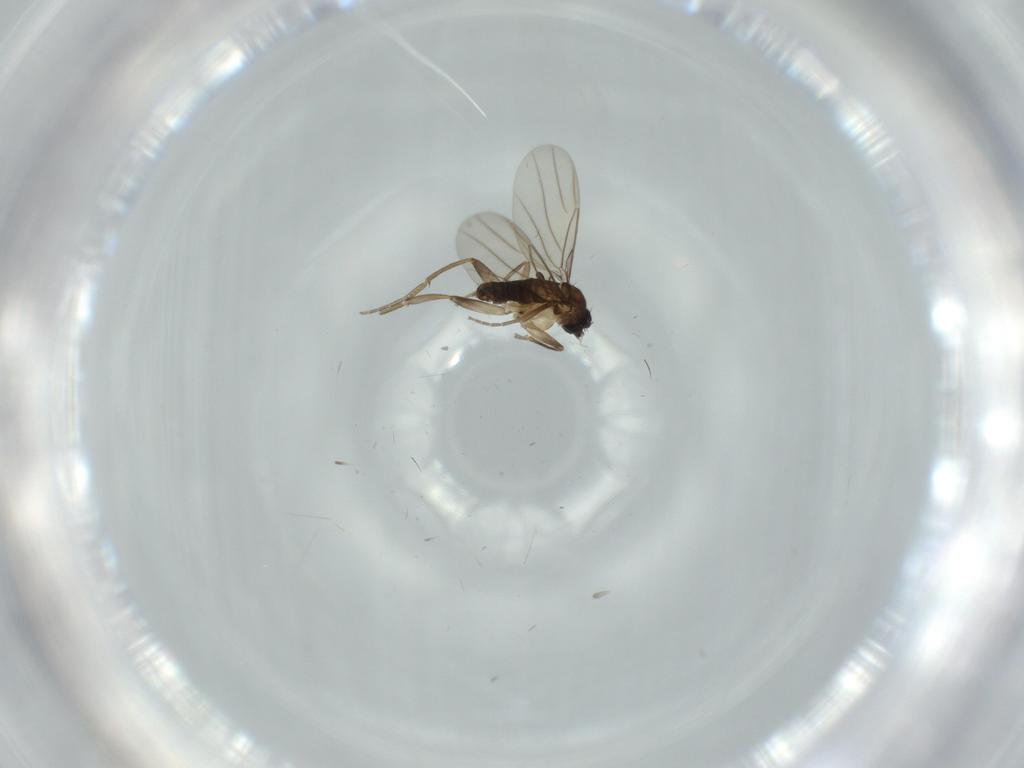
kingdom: Animalia
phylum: Arthropoda
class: Insecta
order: Diptera
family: Phoridae
